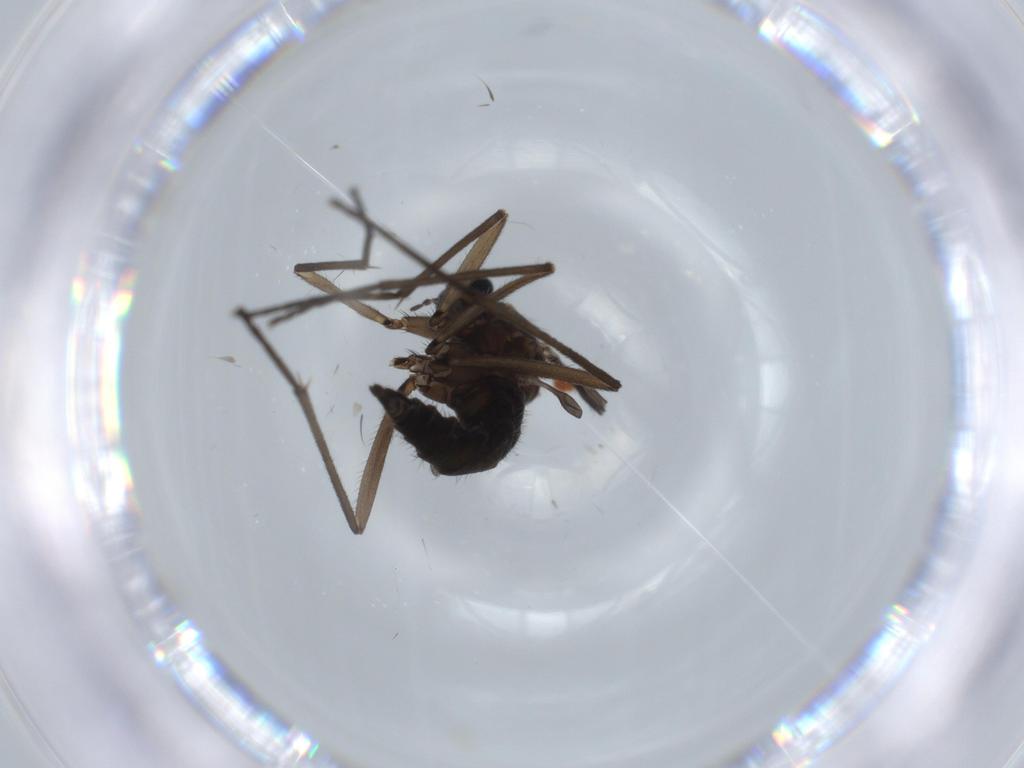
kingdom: Animalia
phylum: Arthropoda
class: Insecta
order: Diptera
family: Sciaridae
